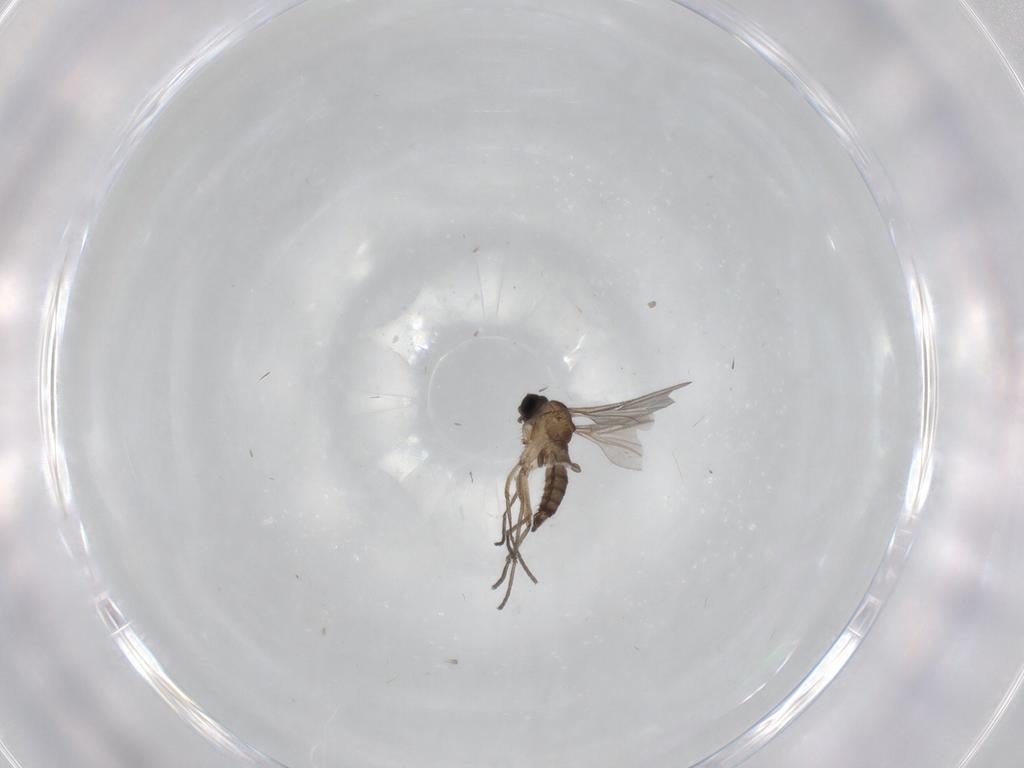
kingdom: Animalia
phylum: Arthropoda
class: Insecta
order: Diptera
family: Sciaridae
